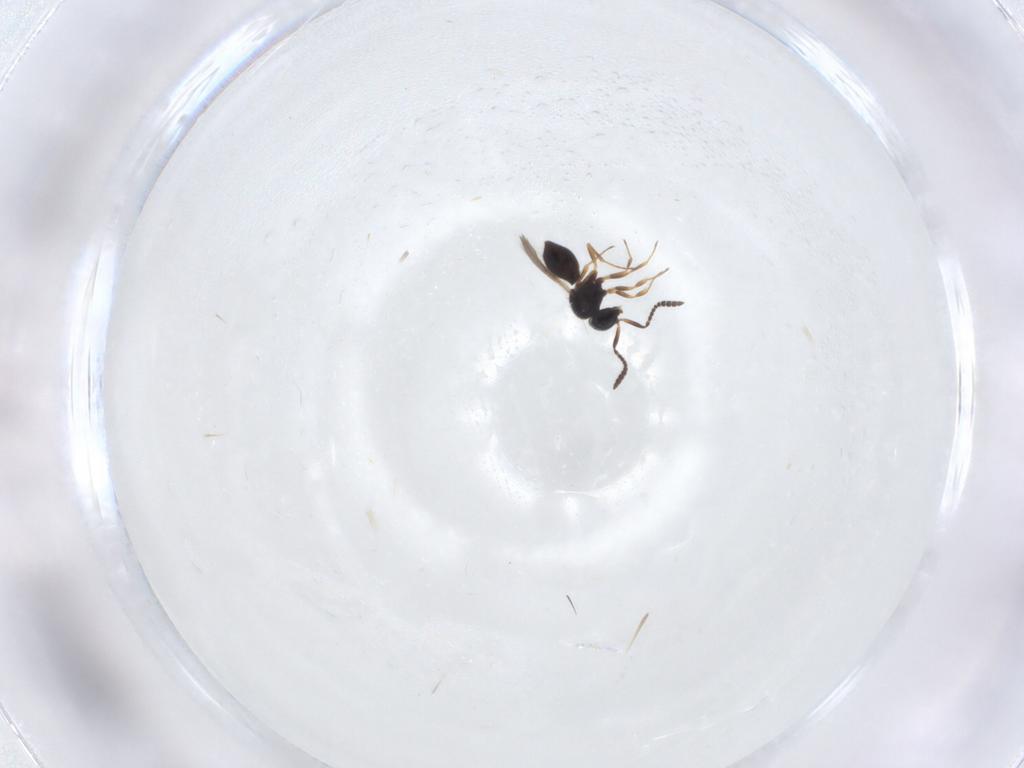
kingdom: Animalia
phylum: Arthropoda
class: Insecta
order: Hymenoptera
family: Scelionidae
